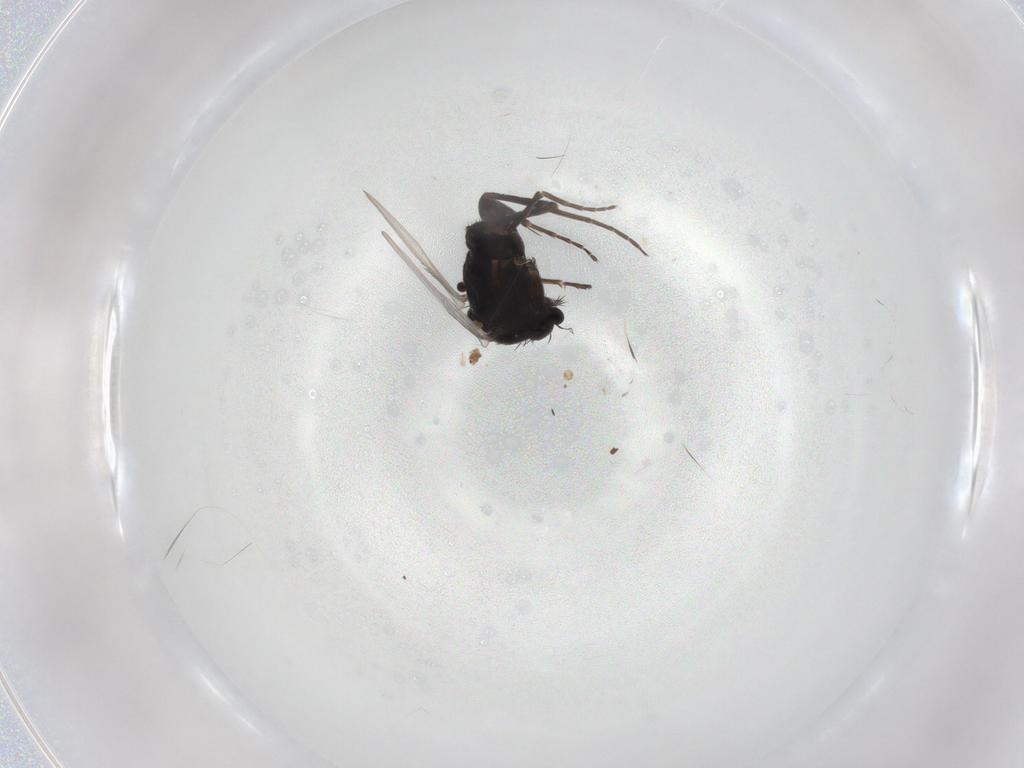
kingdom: Animalia
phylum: Arthropoda
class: Insecta
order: Diptera
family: Phoridae
